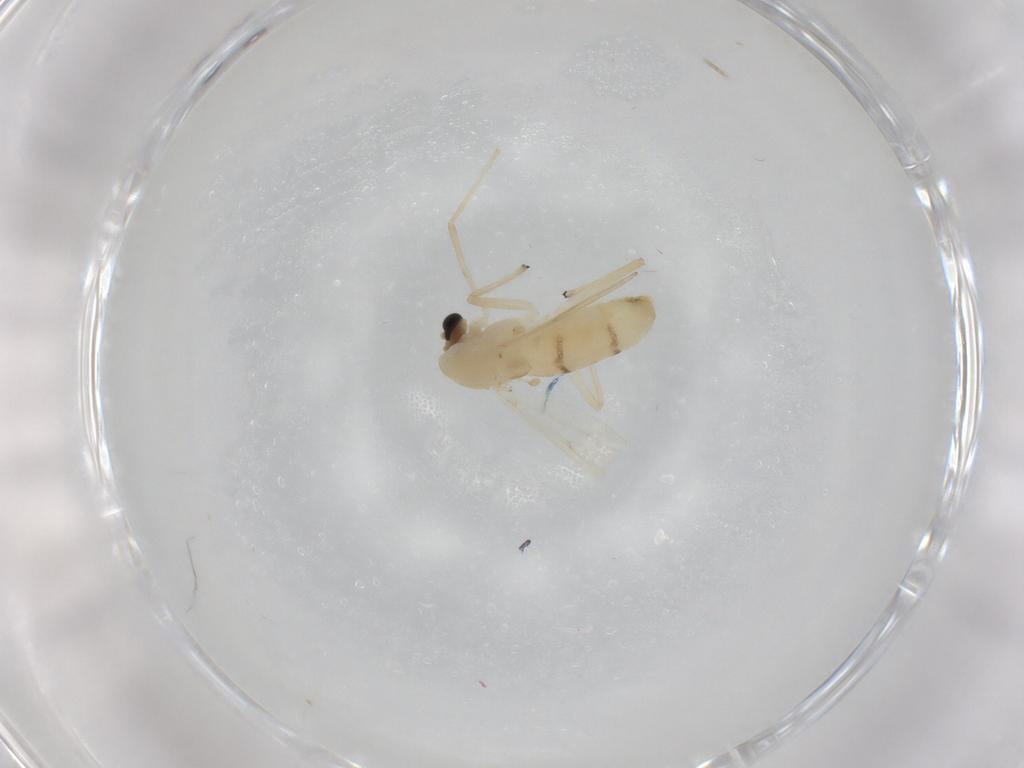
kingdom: Animalia
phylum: Arthropoda
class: Insecta
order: Diptera
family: Chironomidae
